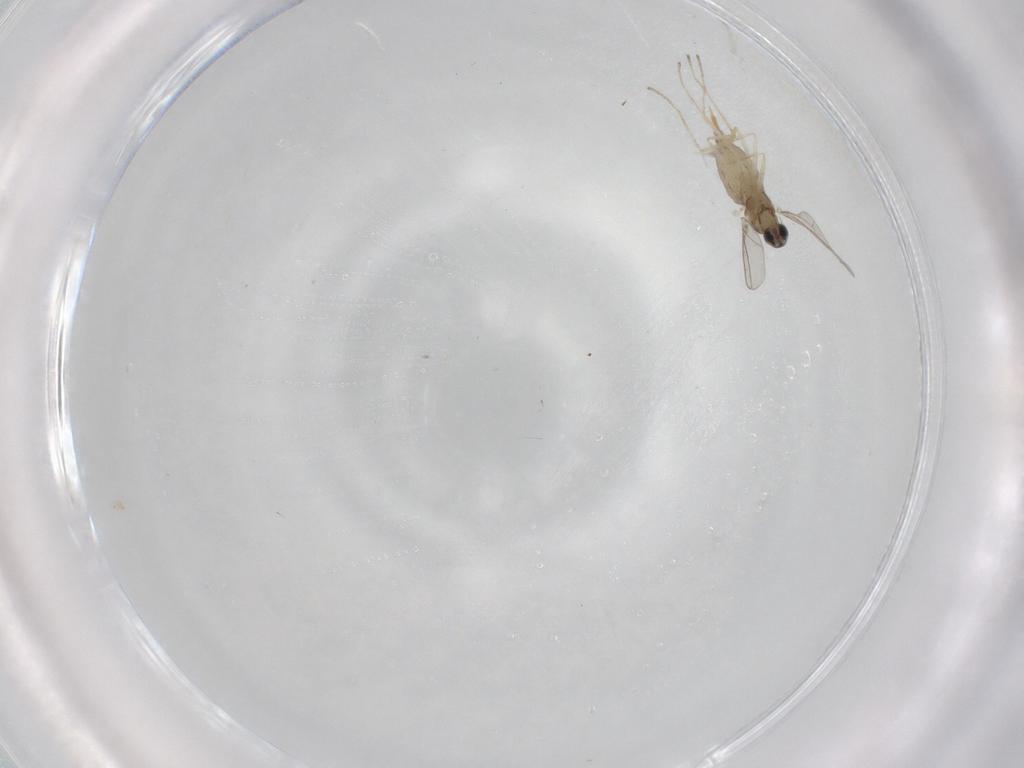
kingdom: Animalia
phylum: Arthropoda
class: Insecta
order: Diptera
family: Cecidomyiidae
